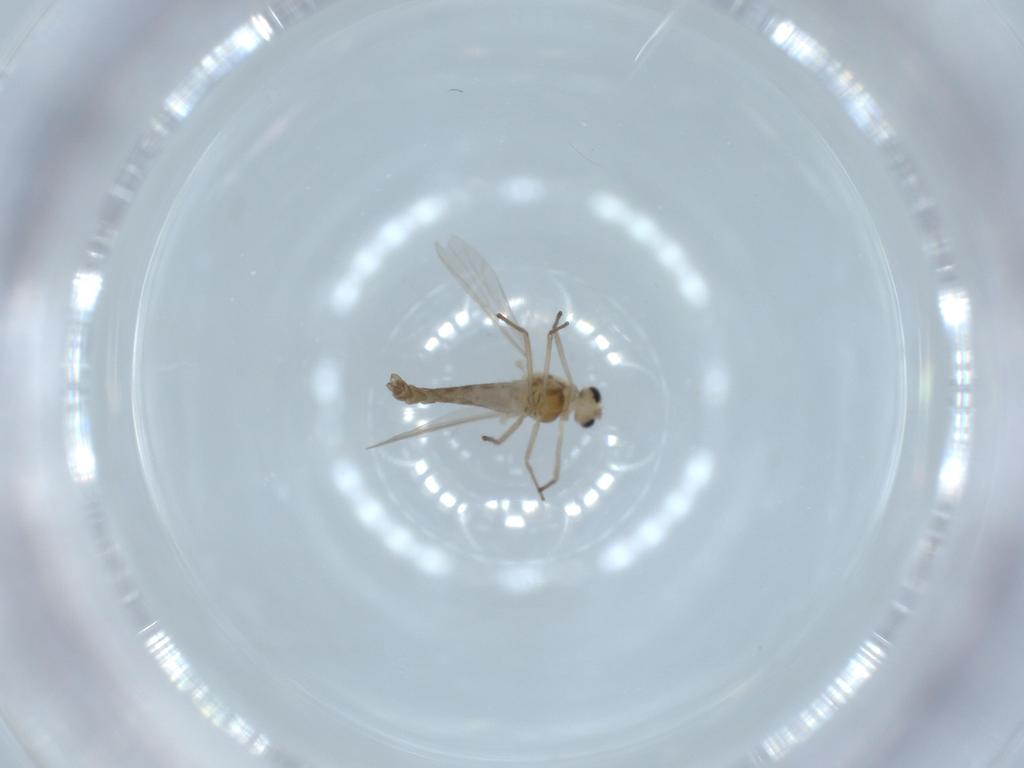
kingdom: Animalia
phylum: Arthropoda
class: Insecta
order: Diptera
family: Chironomidae
